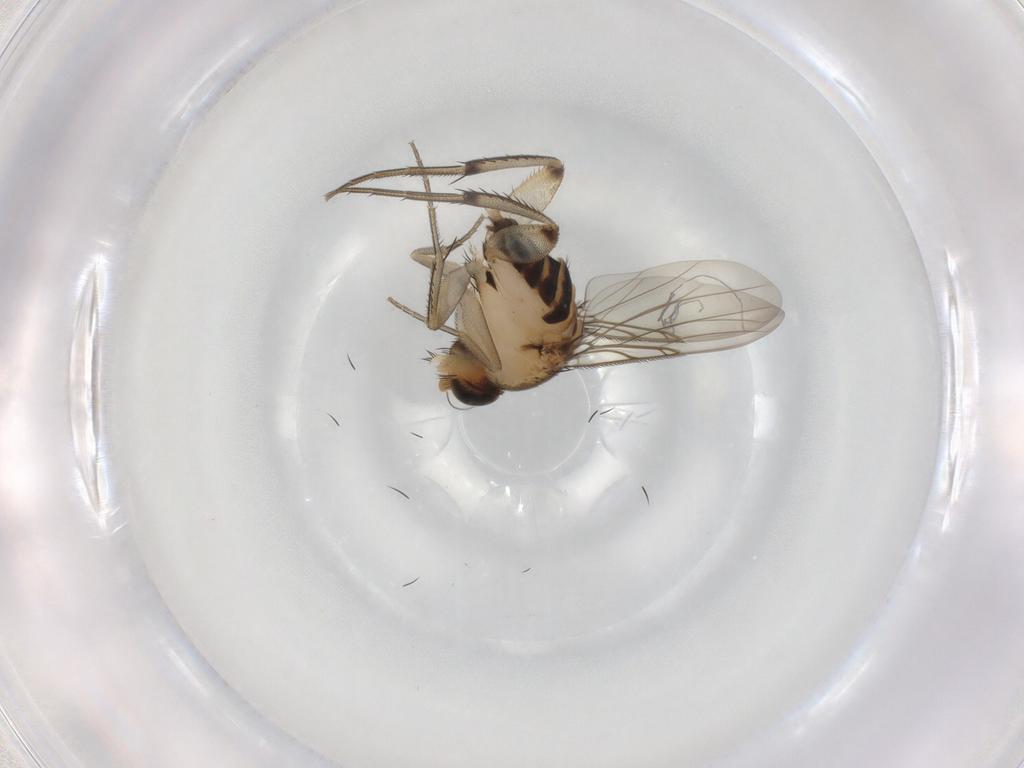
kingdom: Animalia
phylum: Arthropoda
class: Insecta
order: Diptera
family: Phoridae
